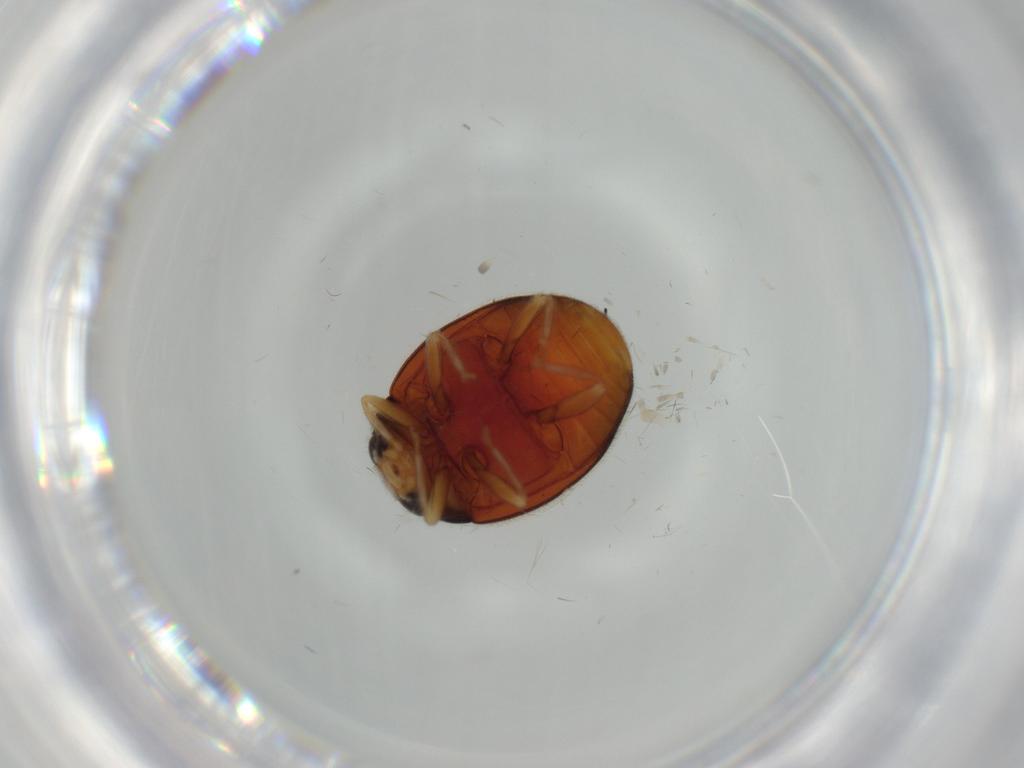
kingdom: Animalia
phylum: Arthropoda
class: Insecta
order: Coleoptera
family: Coccinellidae
